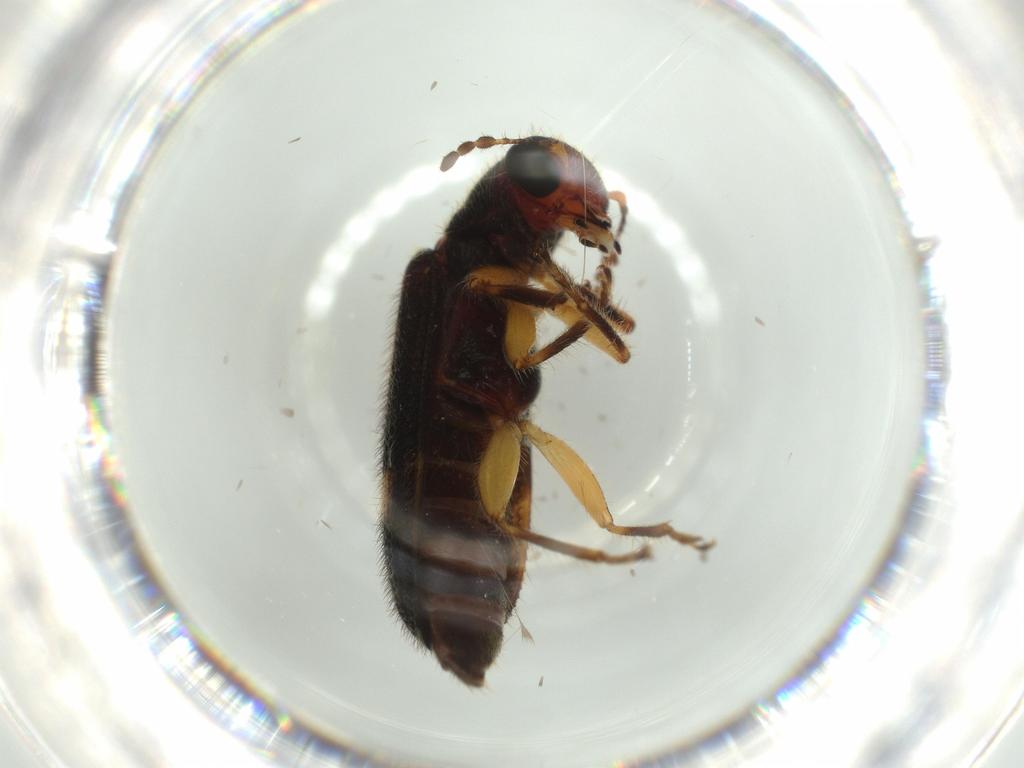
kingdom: Animalia
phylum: Arthropoda
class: Insecta
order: Coleoptera
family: Cleridae
